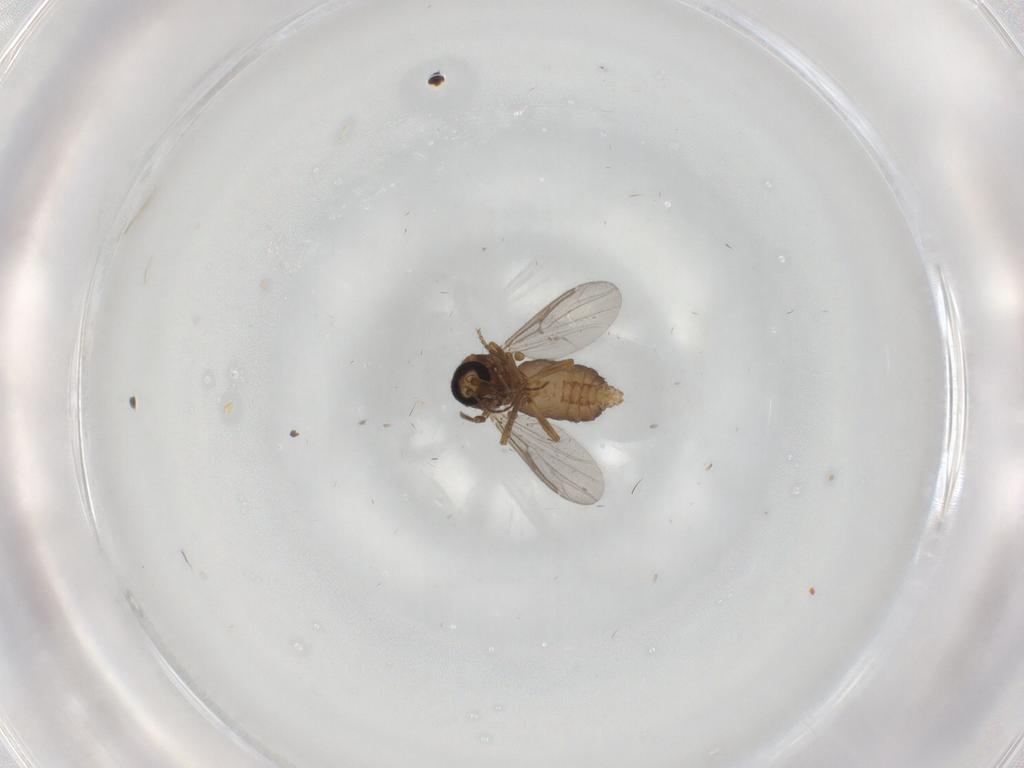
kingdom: Animalia
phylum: Arthropoda
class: Insecta
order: Diptera
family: Ceratopogonidae
